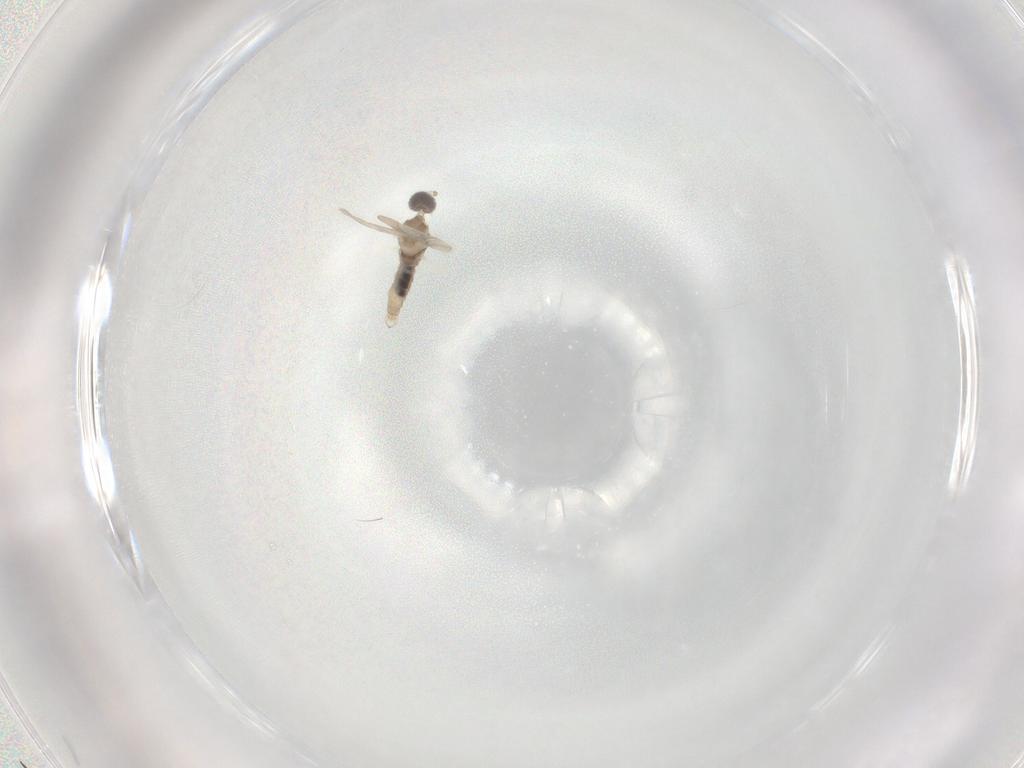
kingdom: Animalia
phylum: Arthropoda
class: Insecta
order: Diptera
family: Cecidomyiidae
